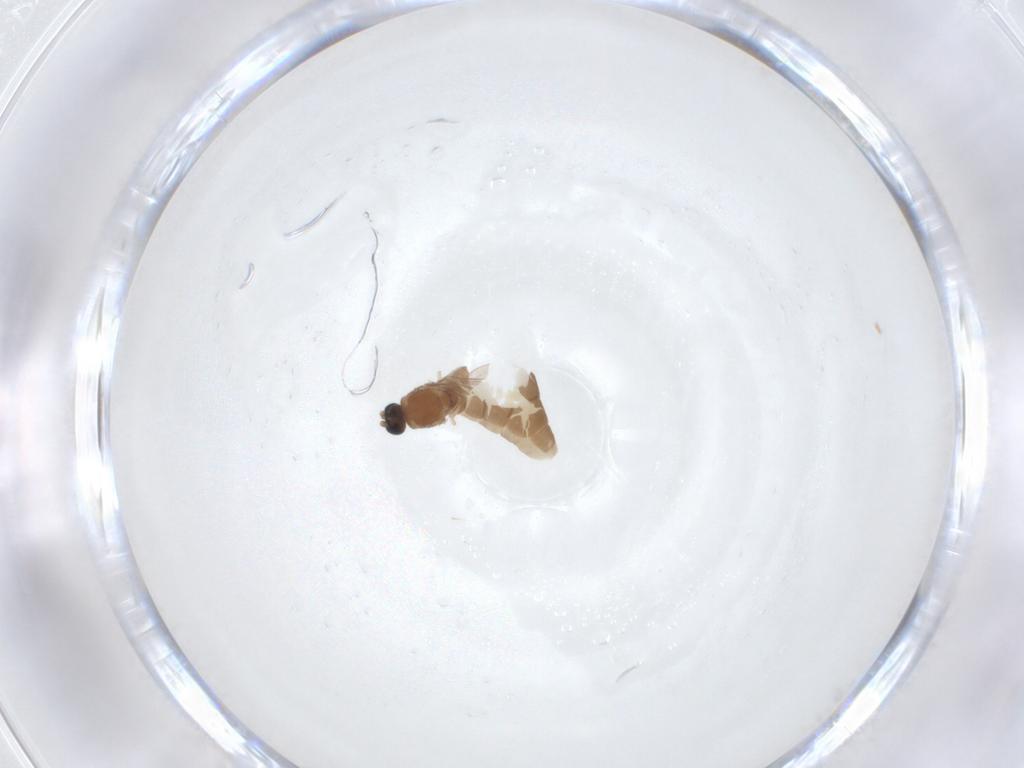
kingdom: Animalia
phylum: Arthropoda
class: Insecta
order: Diptera
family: Sciaridae
